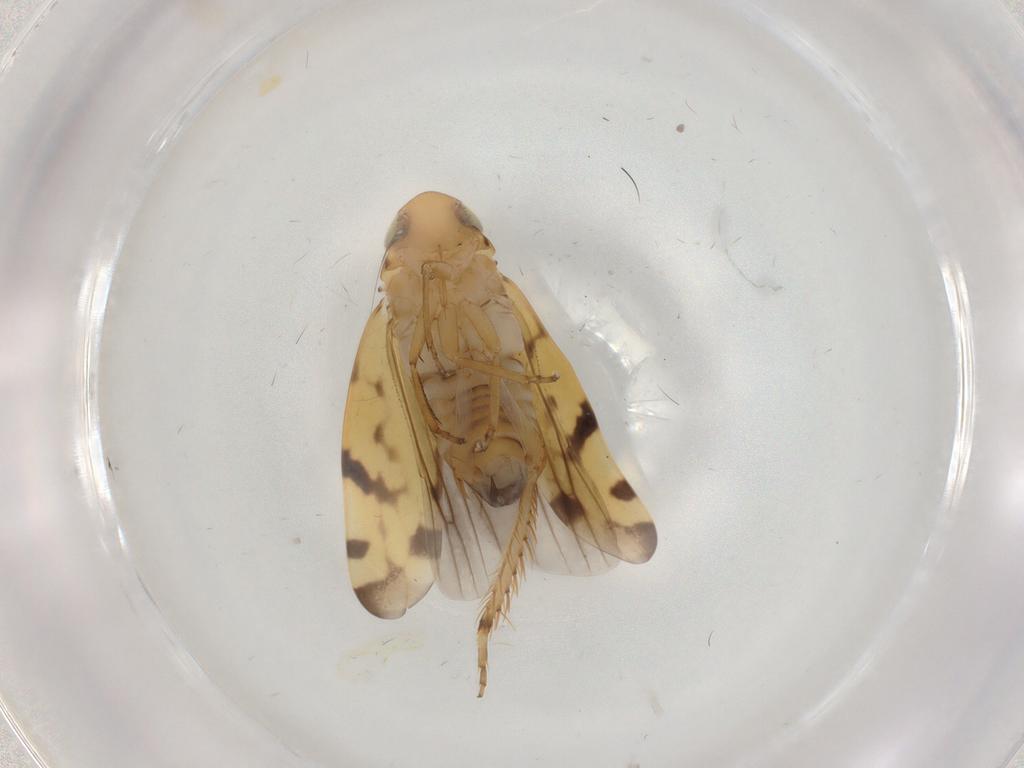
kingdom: Animalia
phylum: Arthropoda
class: Insecta
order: Hemiptera
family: Cicadellidae
